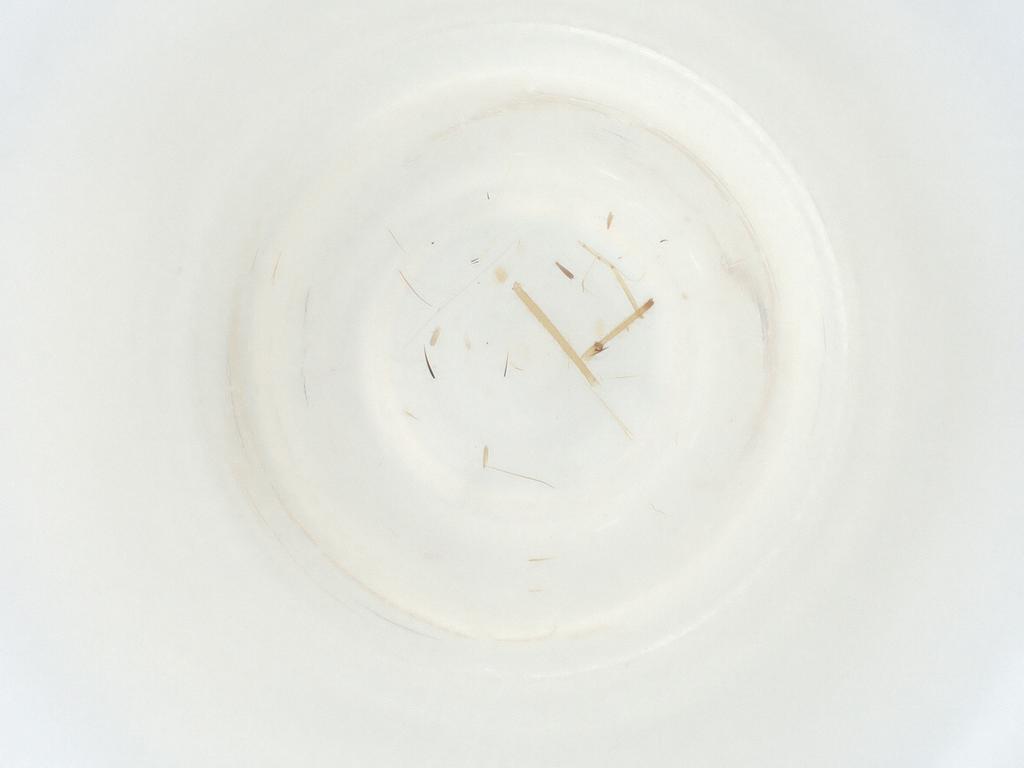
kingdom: Animalia
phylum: Arthropoda
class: Insecta
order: Hemiptera
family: Cicadellidae
